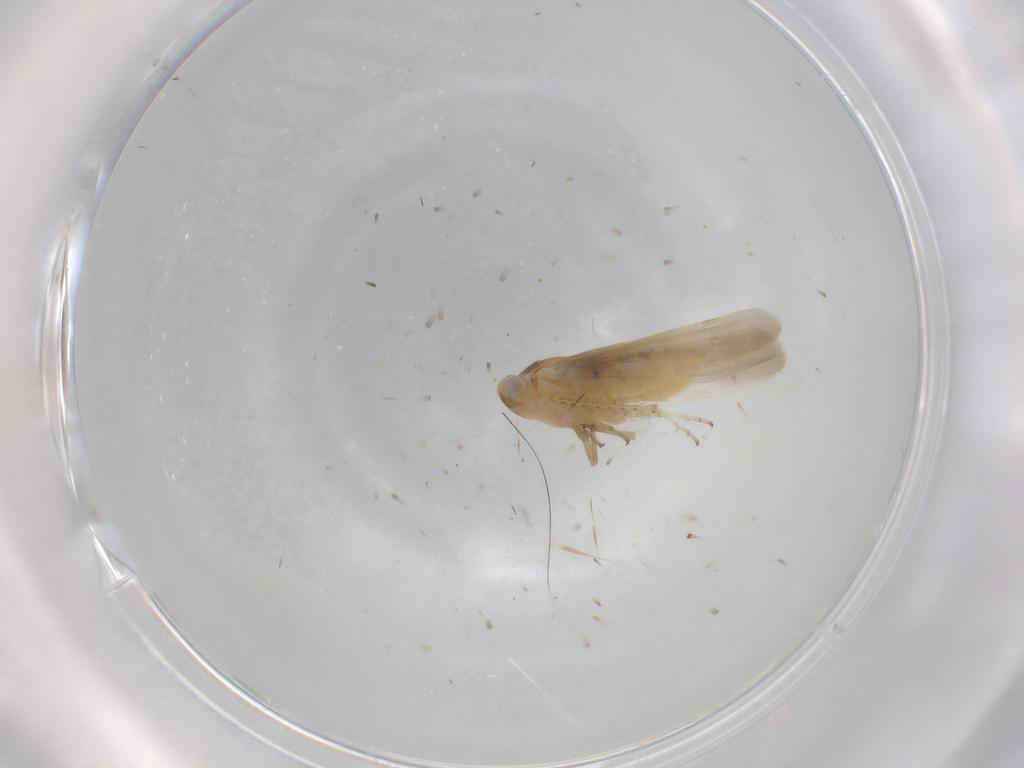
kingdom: Animalia
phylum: Arthropoda
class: Insecta
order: Hemiptera
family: Cicadellidae
